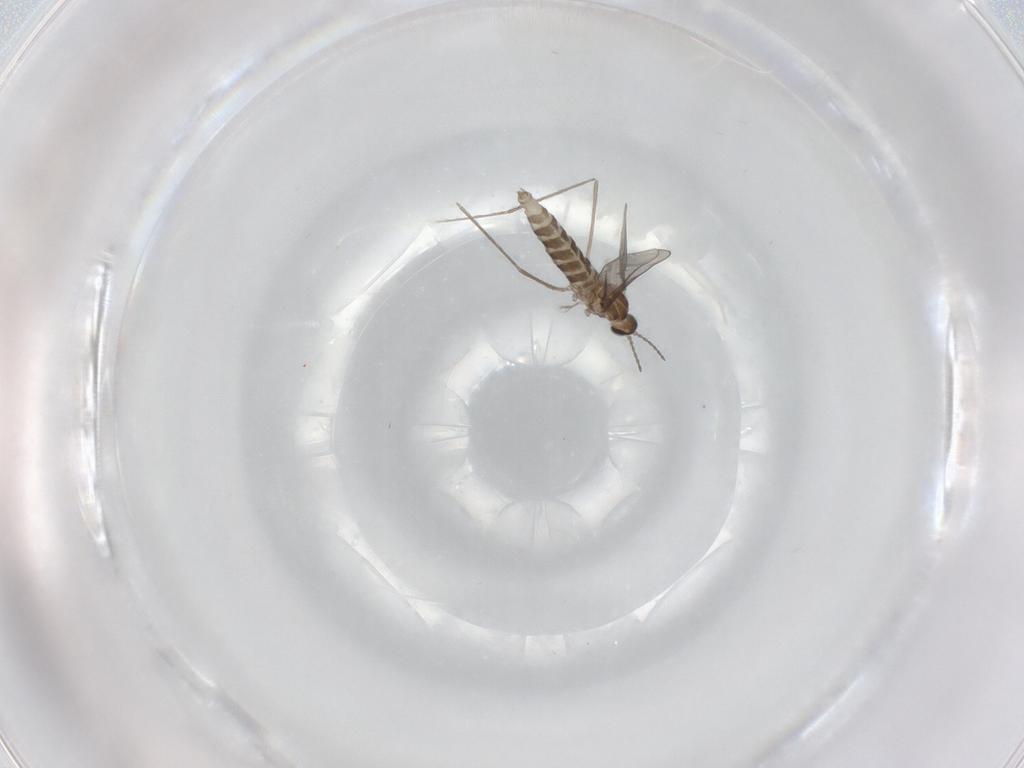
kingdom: Animalia
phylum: Arthropoda
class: Insecta
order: Diptera
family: Cecidomyiidae
